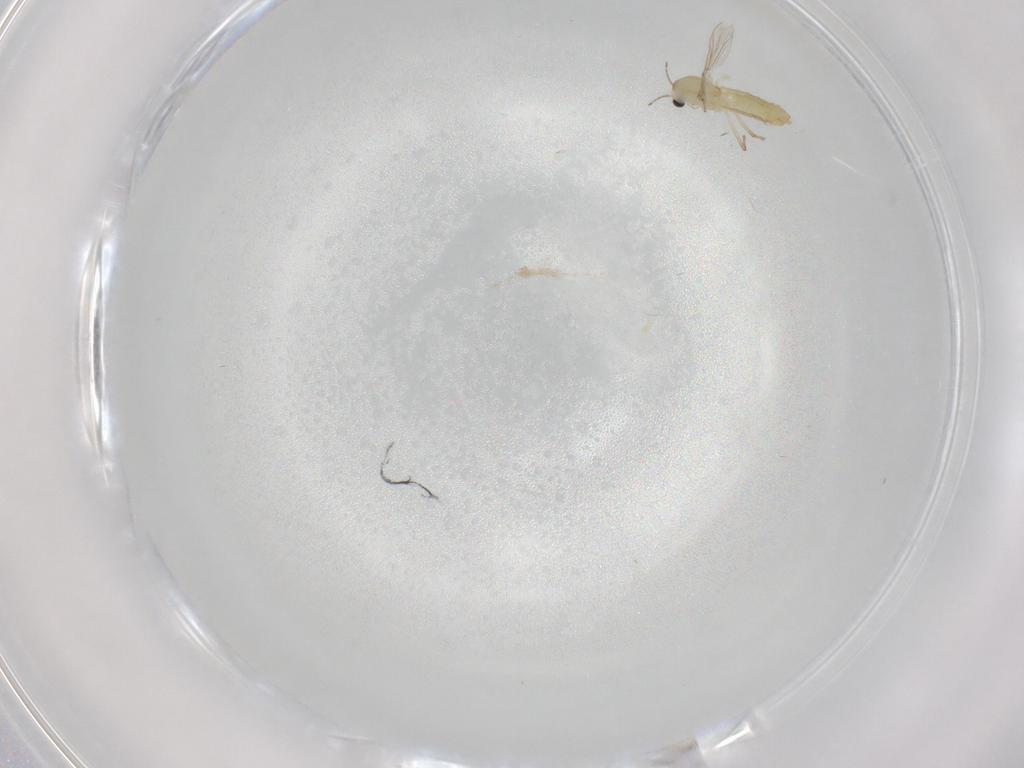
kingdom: Animalia
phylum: Arthropoda
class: Insecta
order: Diptera
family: Chironomidae
